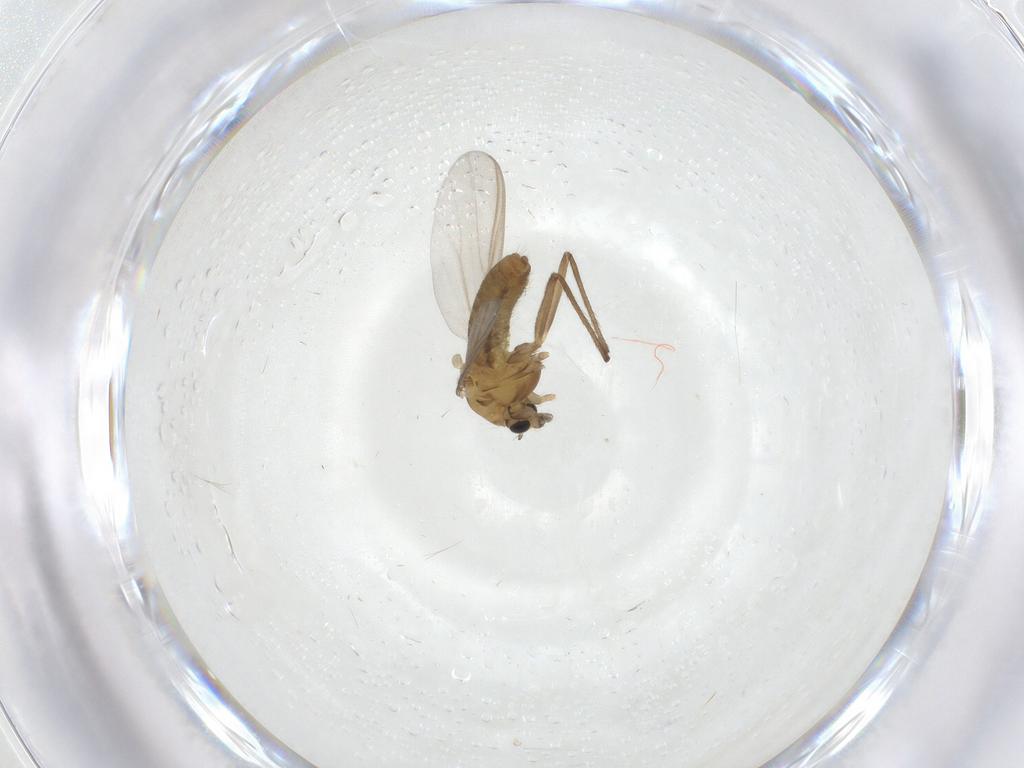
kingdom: Animalia
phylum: Arthropoda
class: Insecta
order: Diptera
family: Chironomidae
